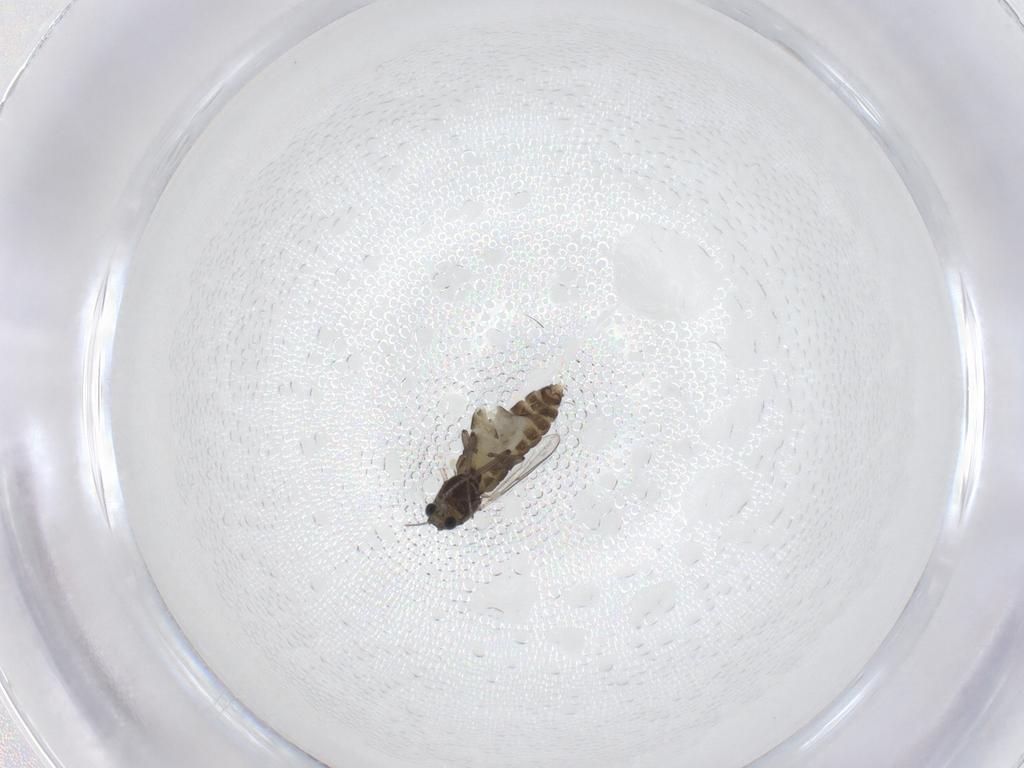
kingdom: Animalia
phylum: Arthropoda
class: Insecta
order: Diptera
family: Chironomidae
